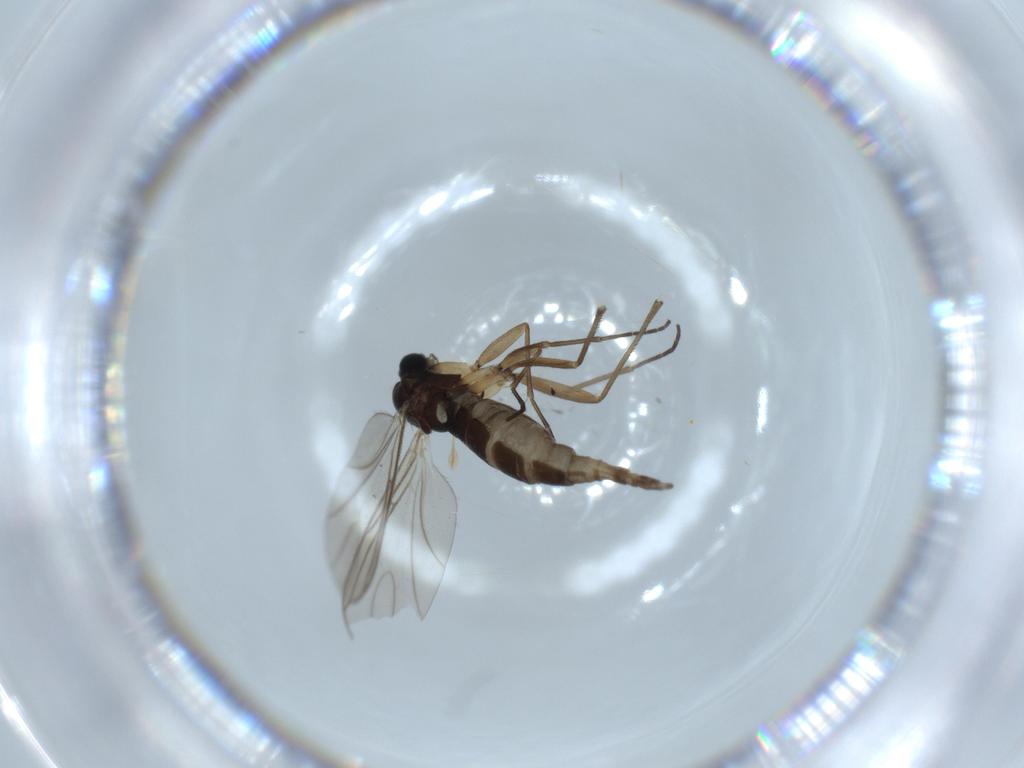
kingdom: Animalia
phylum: Arthropoda
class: Insecta
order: Diptera
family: Sciaridae
